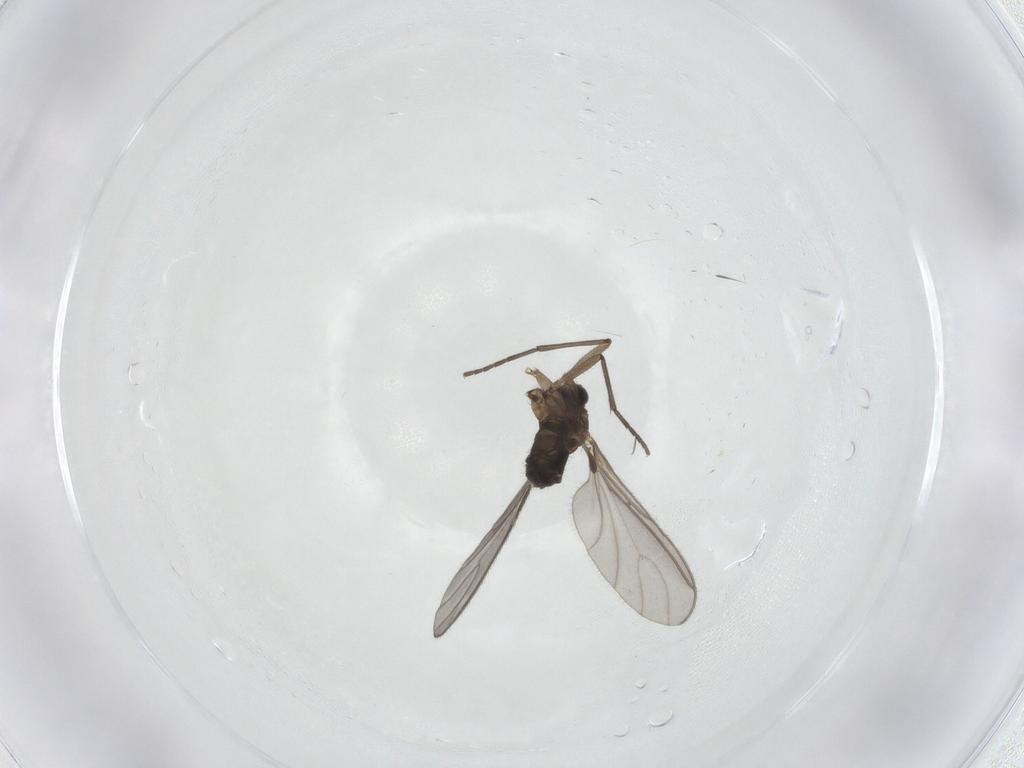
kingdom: Animalia
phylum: Arthropoda
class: Insecta
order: Diptera
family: Sciaridae
